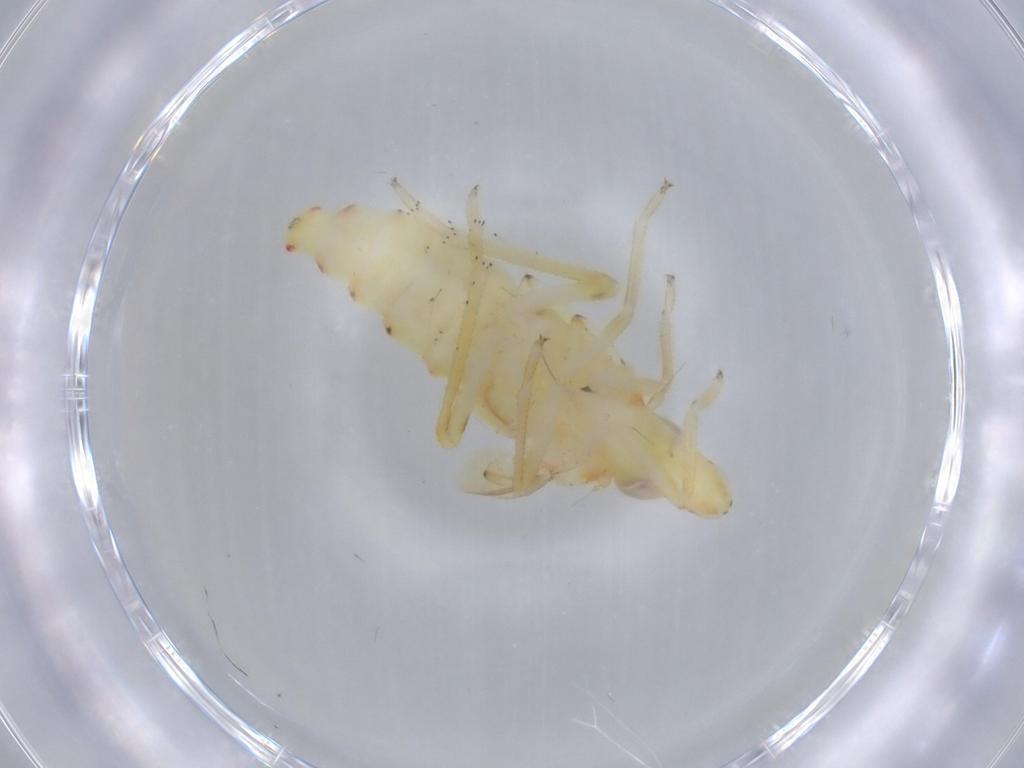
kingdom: Animalia
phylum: Arthropoda
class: Insecta
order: Hemiptera
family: Tropiduchidae
